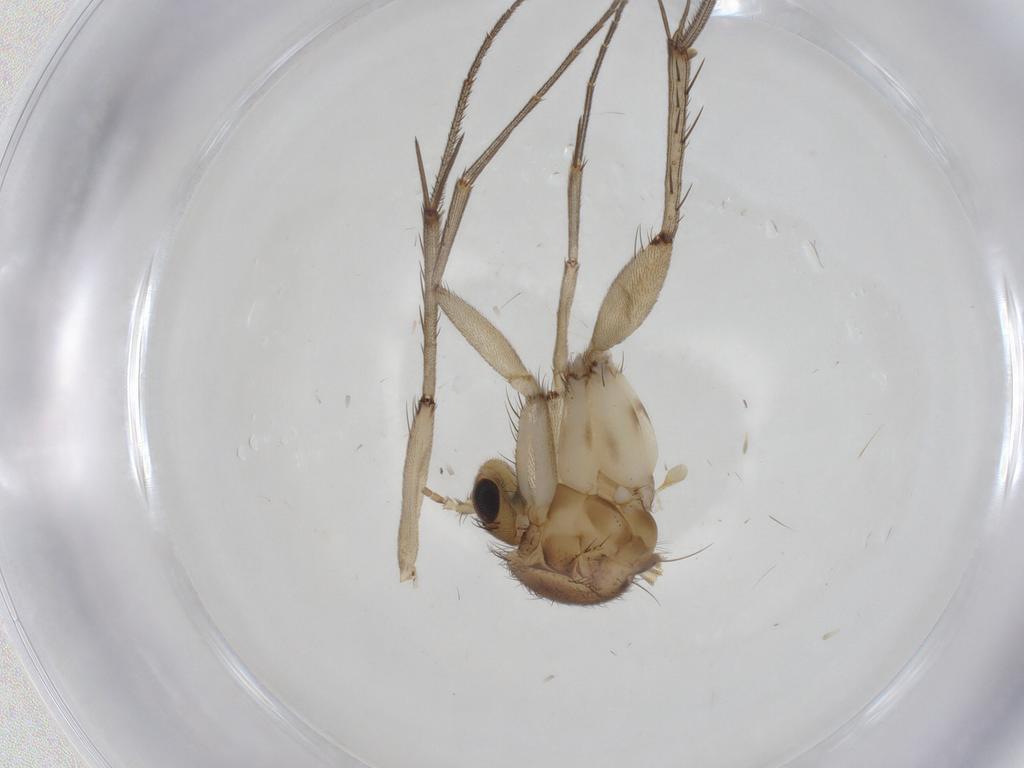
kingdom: Animalia
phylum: Arthropoda
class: Insecta
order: Diptera
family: Mycetophilidae
